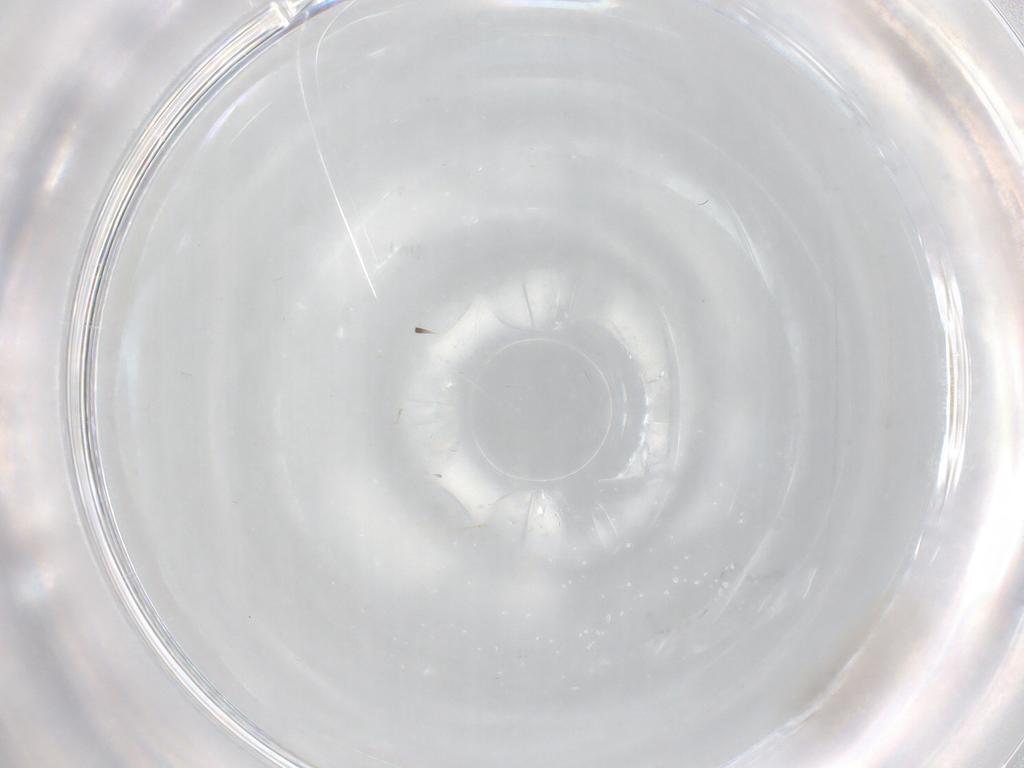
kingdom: Animalia
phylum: Arthropoda
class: Insecta
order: Diptera
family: Cecidomyiidae
